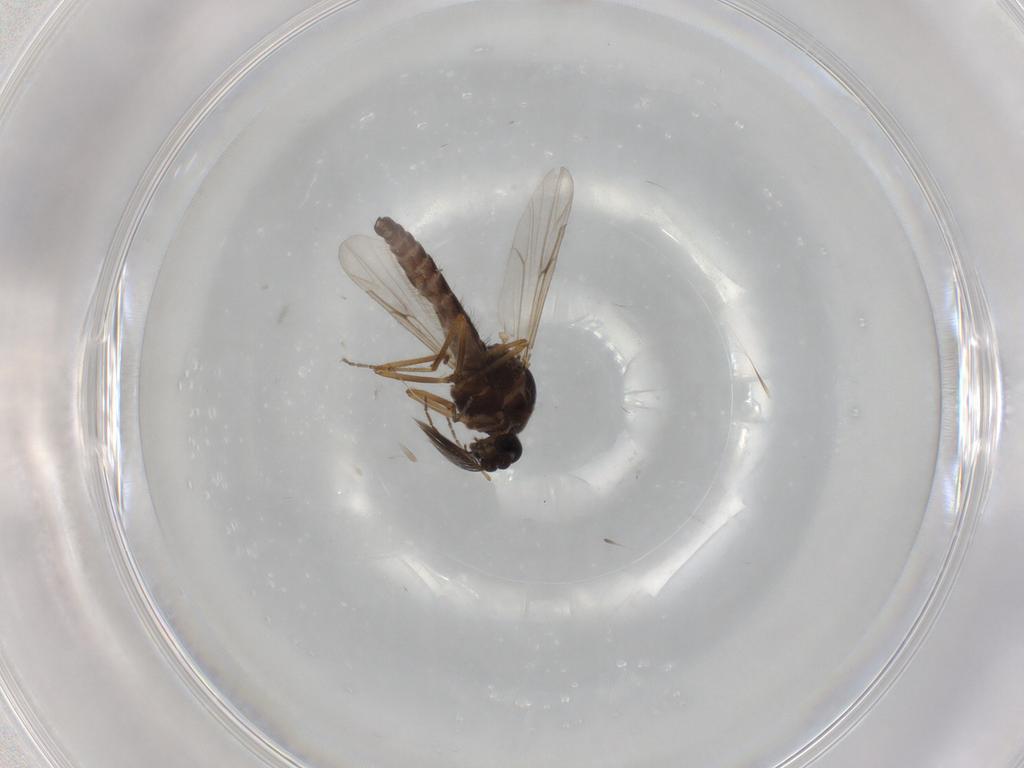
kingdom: Animalia
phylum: Arthropoda
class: Insecta
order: Diptera
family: Ceratopogonidae
